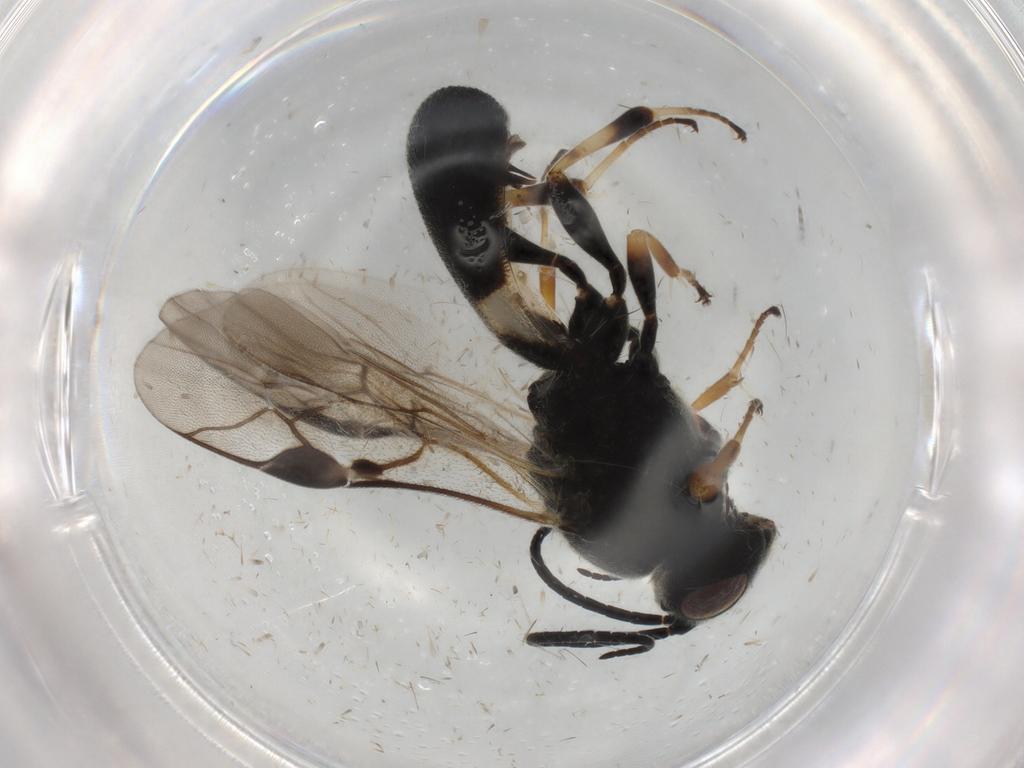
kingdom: Animalia
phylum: Arthropoda
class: Insecta
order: Hymenoptera
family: Braconidae
